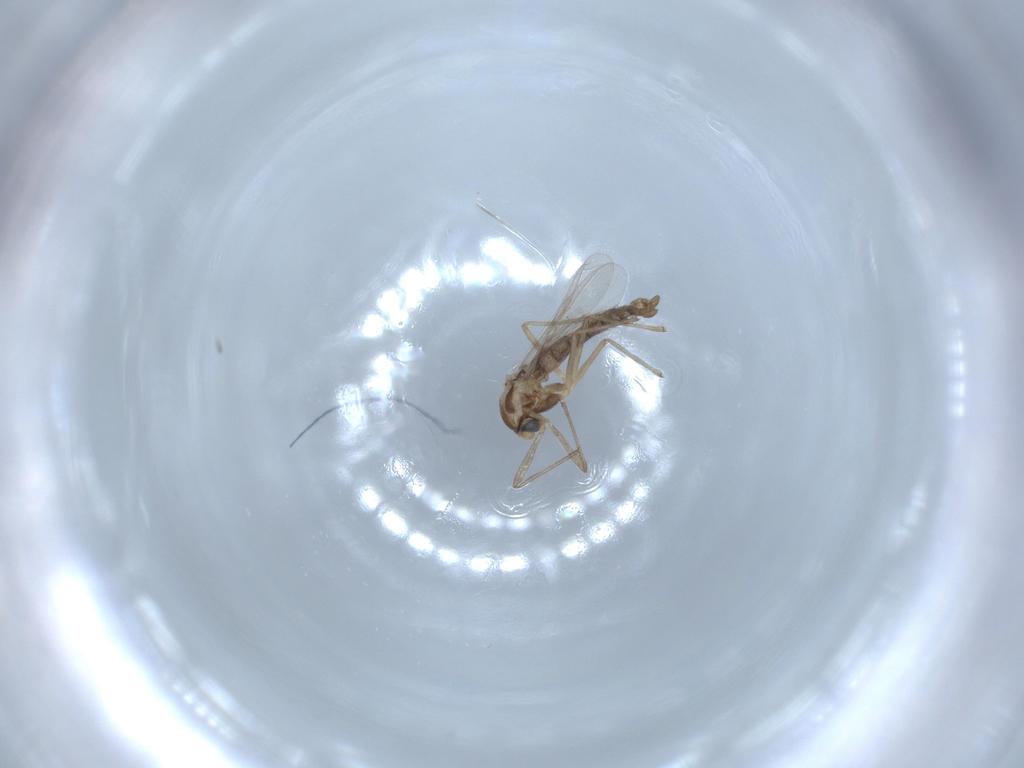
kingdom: Animalia
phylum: Arthropoda
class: Insecta
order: Diptera
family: Chironomidae
